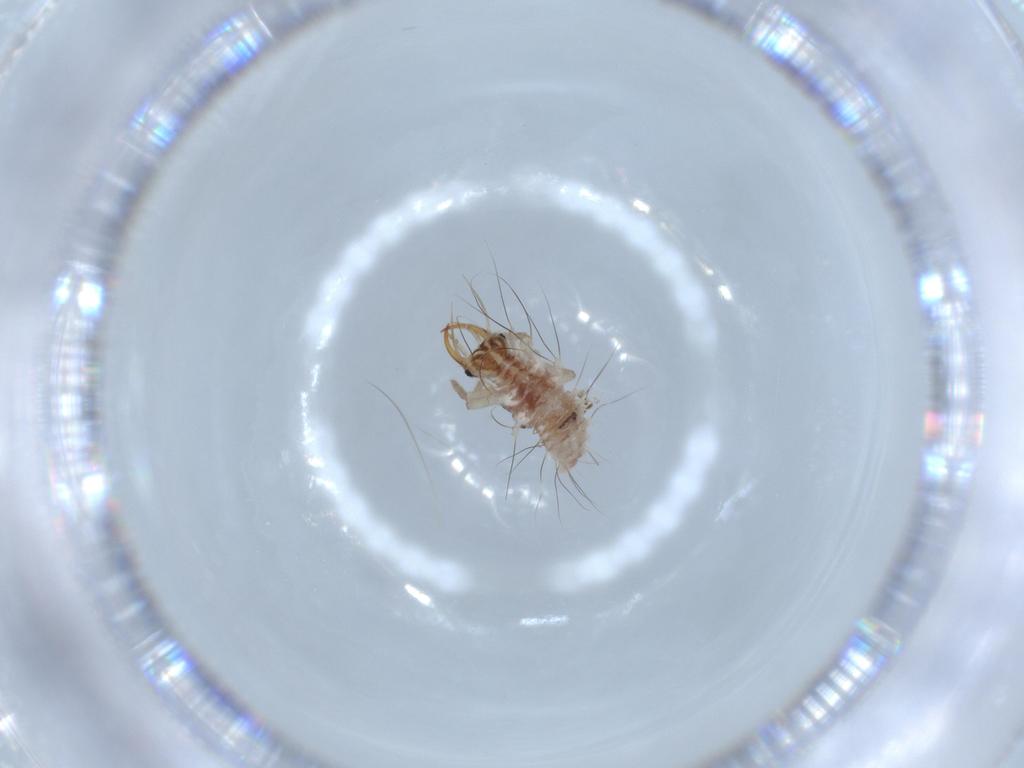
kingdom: Animalia
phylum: Arthropoda
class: Insecta
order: Neuroptera
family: Chrysopidae
